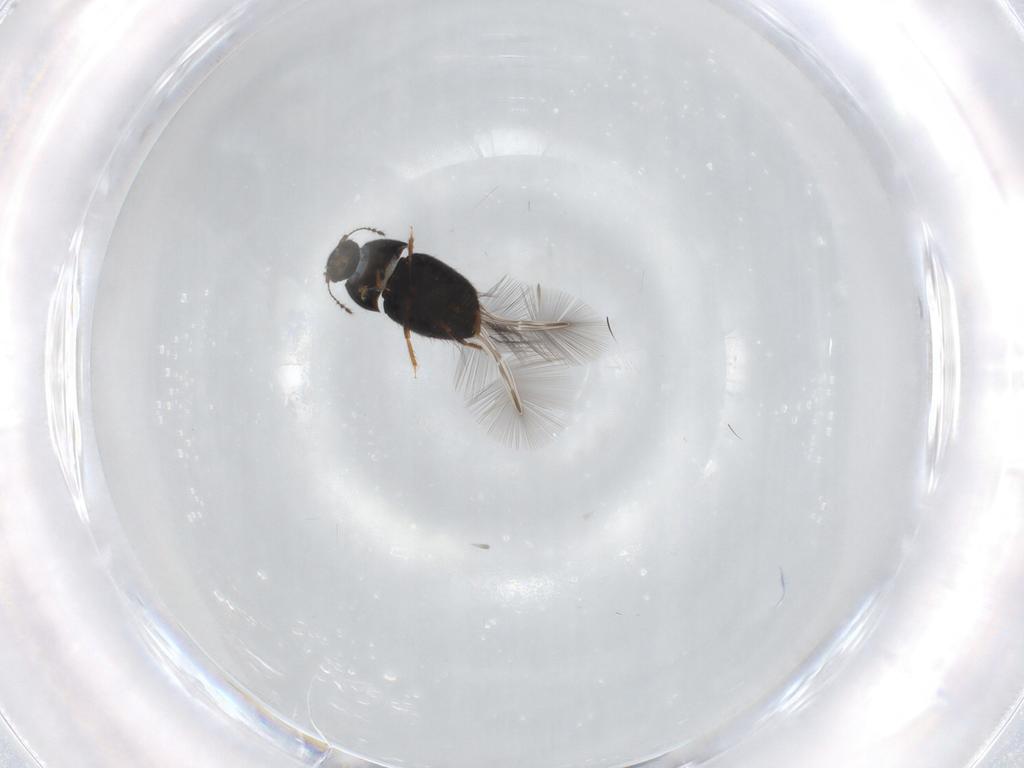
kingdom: Animalia
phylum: Arthropoda
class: Insecta
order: Coleoptera
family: Ptiliidae
